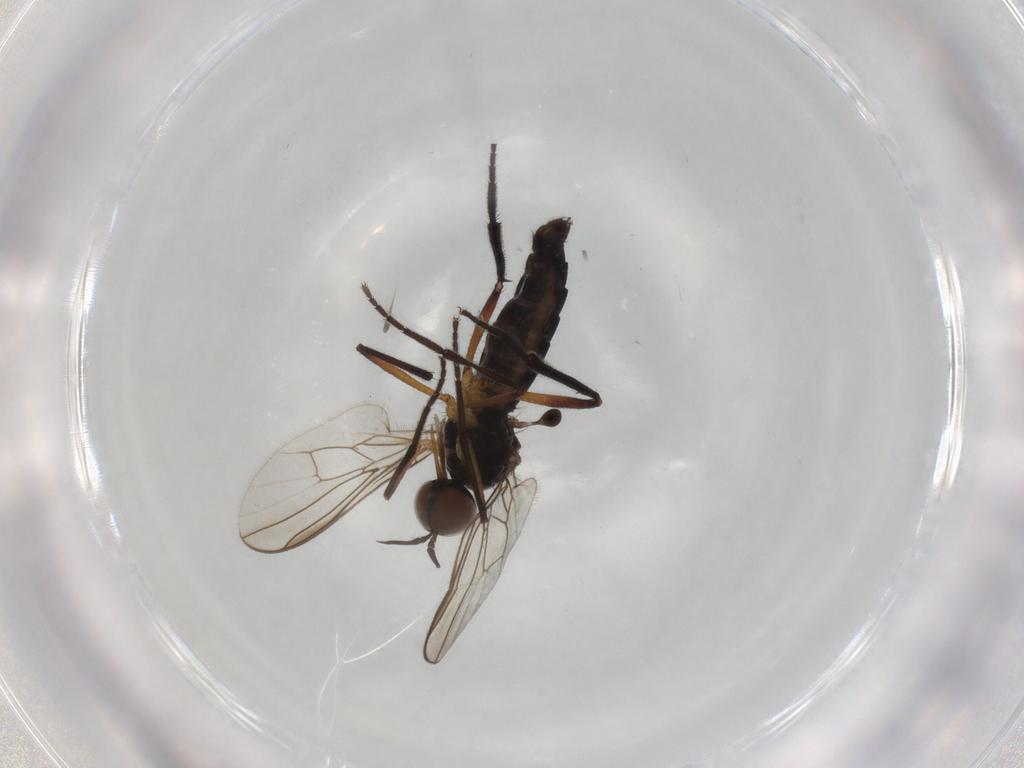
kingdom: Animalia
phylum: Arthropoda
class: Insecta
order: Diptera
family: Empididae
